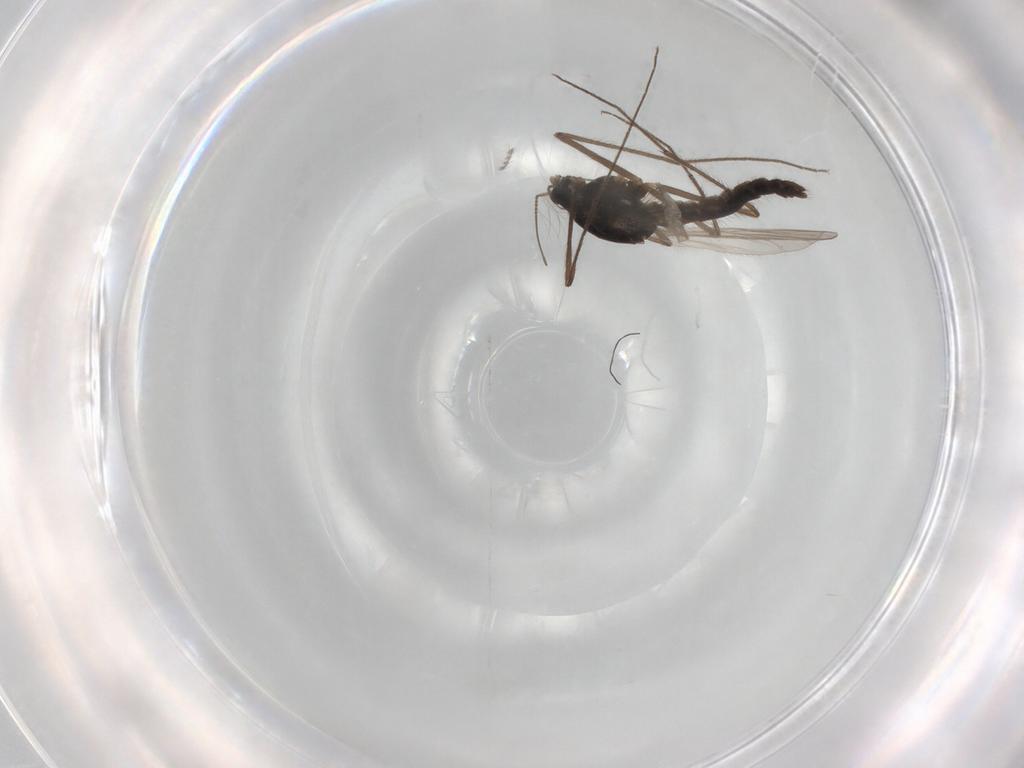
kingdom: Animalia
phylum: Arthropoda
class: Insecta
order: Diptera
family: Chironomidae
